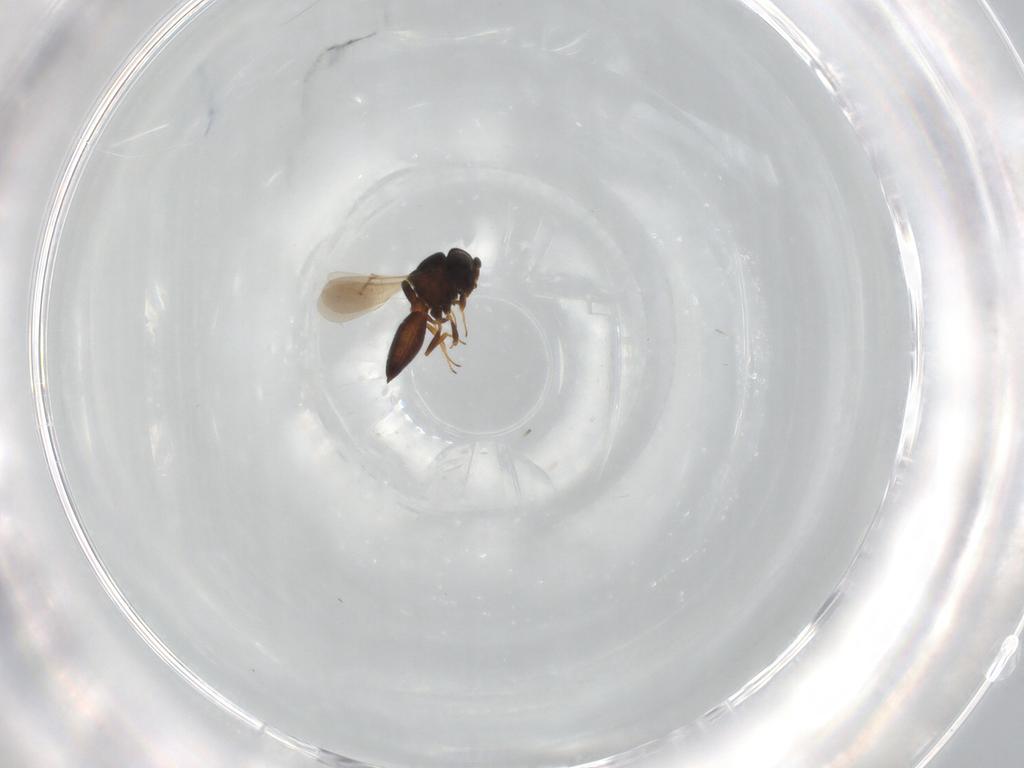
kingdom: Animalia
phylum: Arthropoda
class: Insecta
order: Hymenoptera
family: Scelionidae
